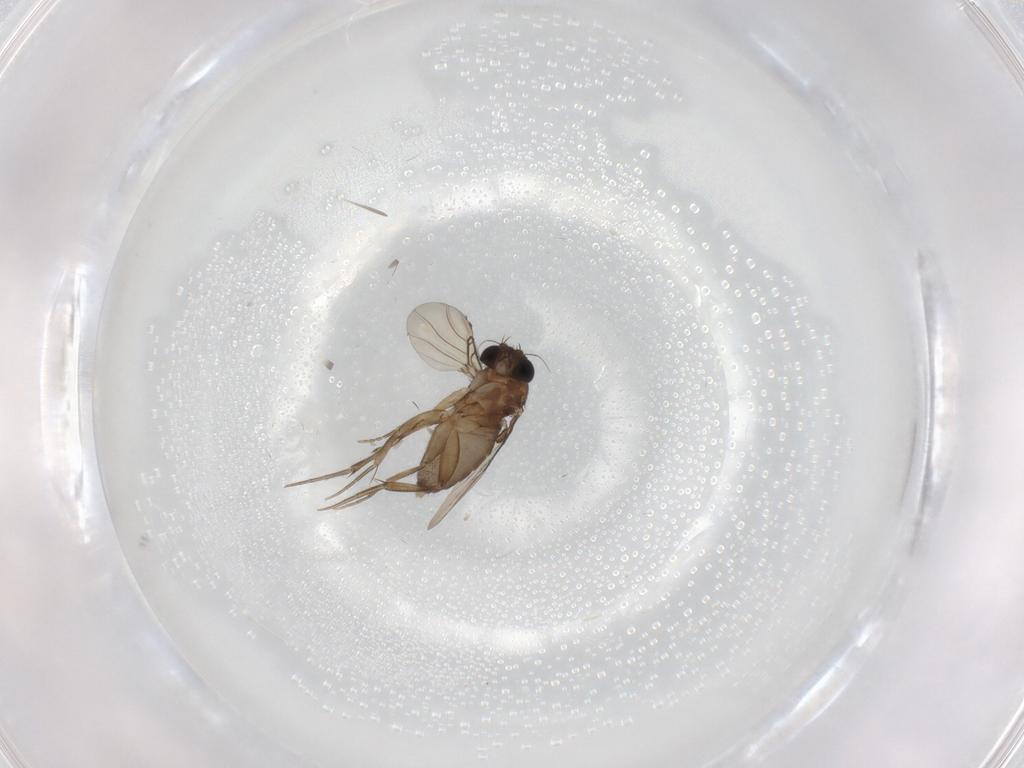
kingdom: Animalia
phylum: Arthropoda
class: Insecta
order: Diptera
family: Phoridae
